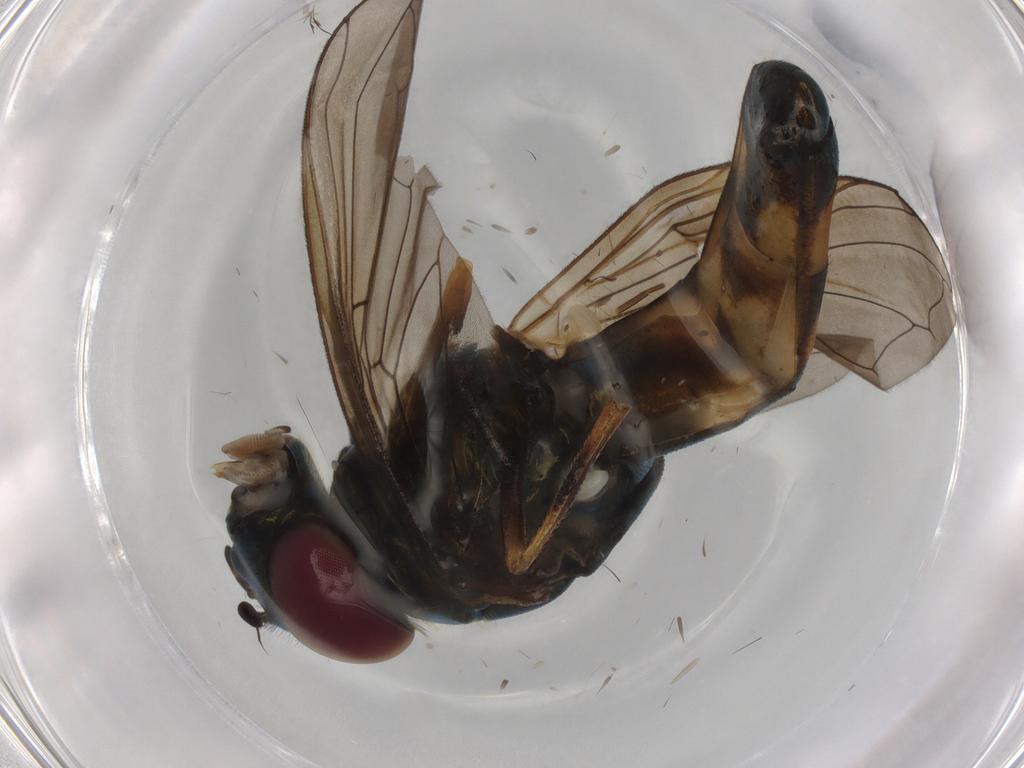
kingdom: Animalia
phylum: Arthropoda
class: Insecta
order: Diptera
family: Syrphidae
